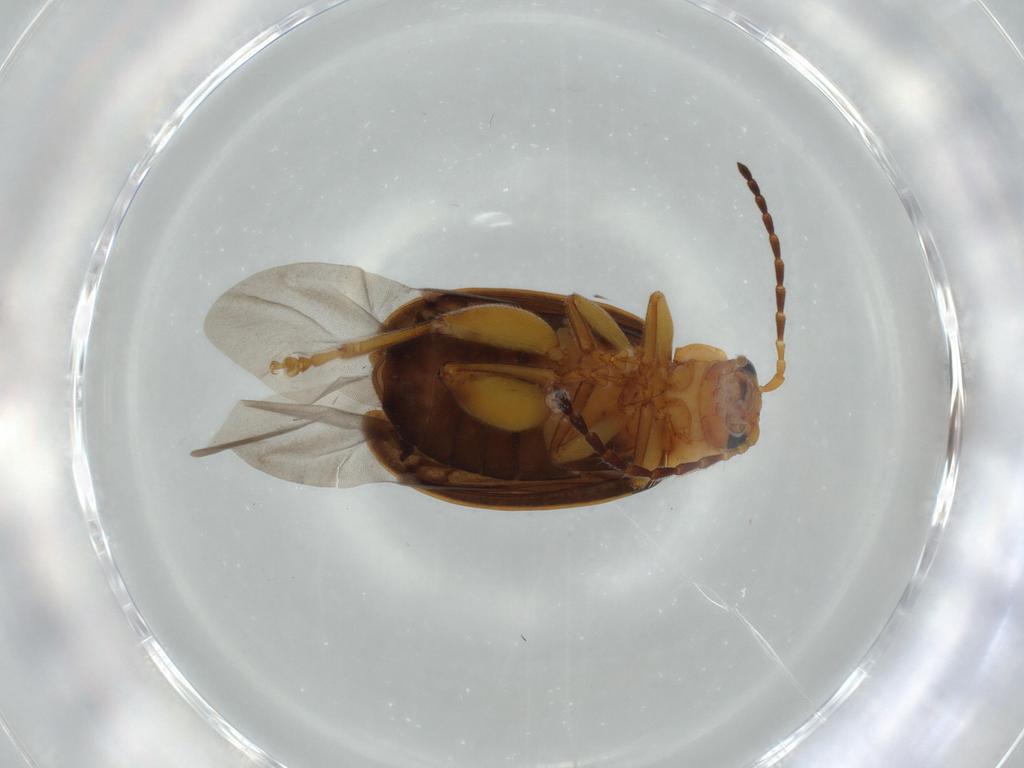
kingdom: Animalia
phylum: Arthropoda
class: Insecta
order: Coleoptera
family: Chrysomelidae
